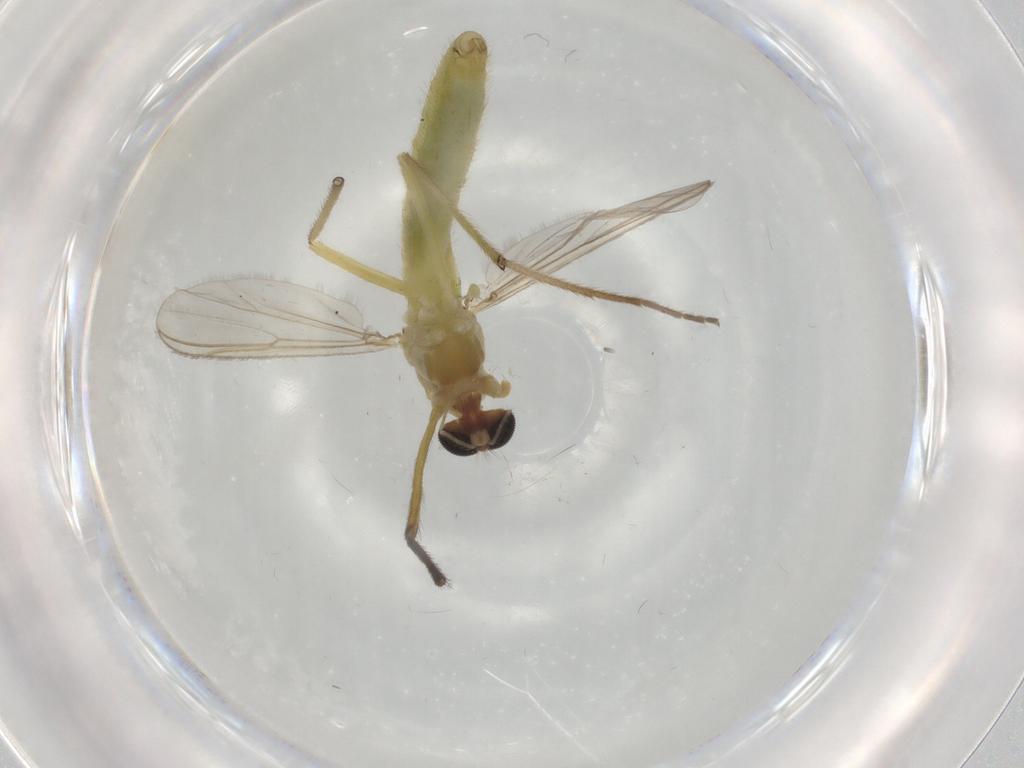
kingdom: Animalia
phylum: Arthropoda
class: Insecta
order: Diptera
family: Chironomidae
